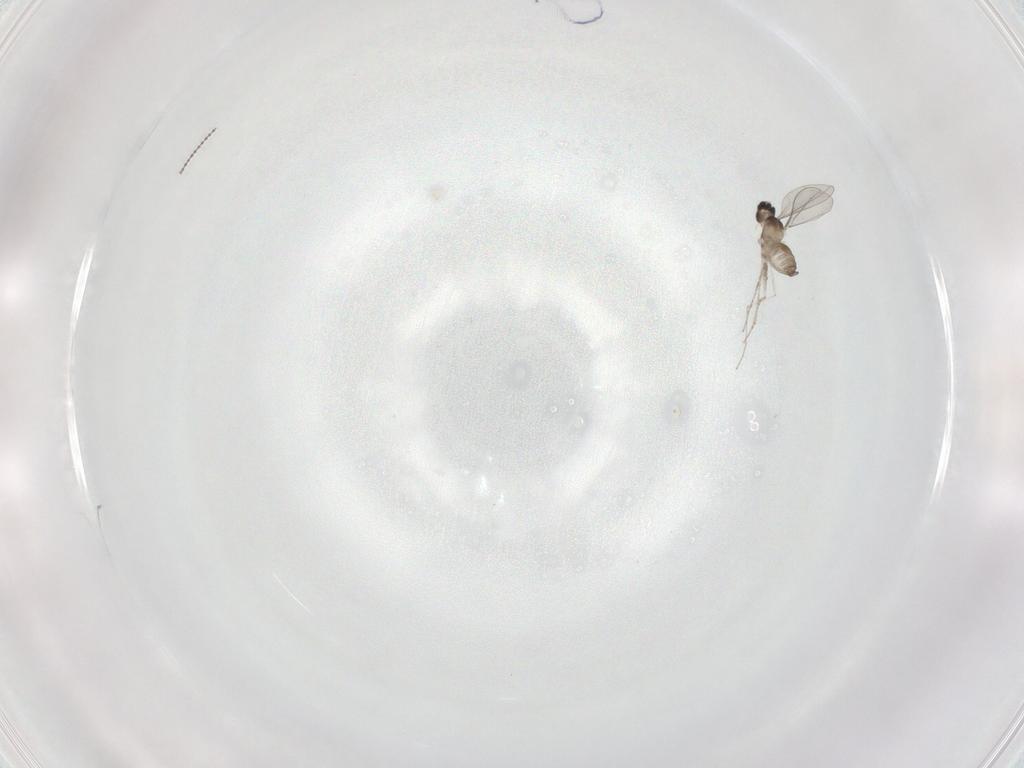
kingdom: Animalia
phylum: Arthropoda
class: Insecta
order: Diptera
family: Cecidomyiidae
